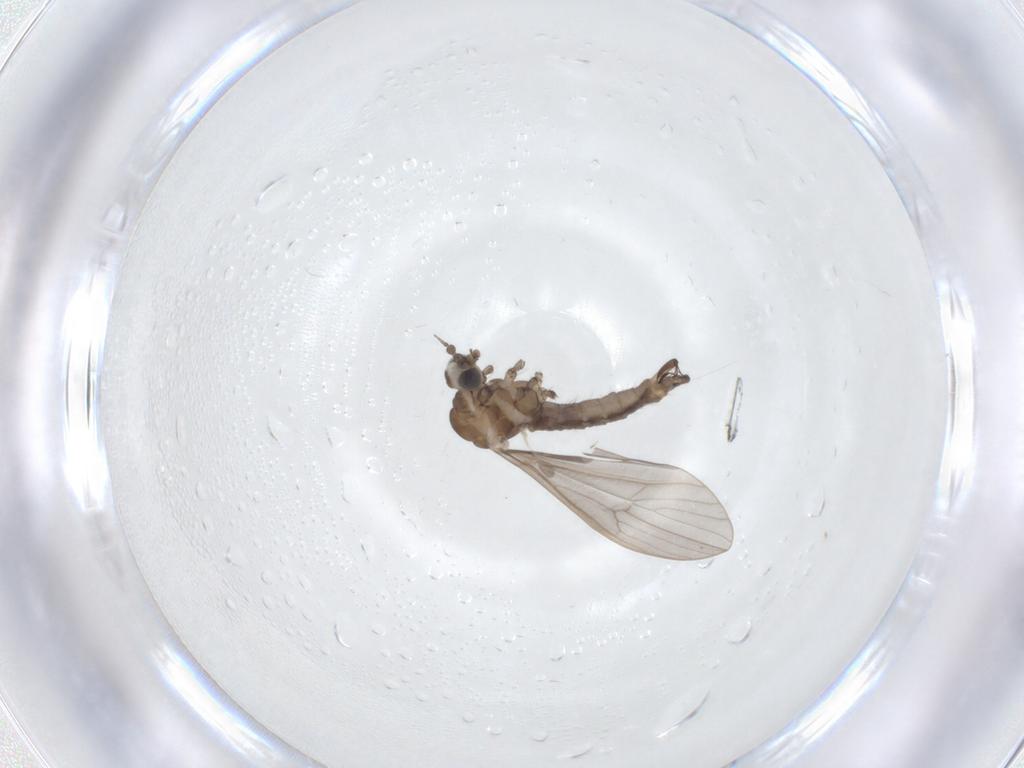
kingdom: Animalia
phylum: Arthropoda
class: Insecta
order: Diptera
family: Limoniidae
